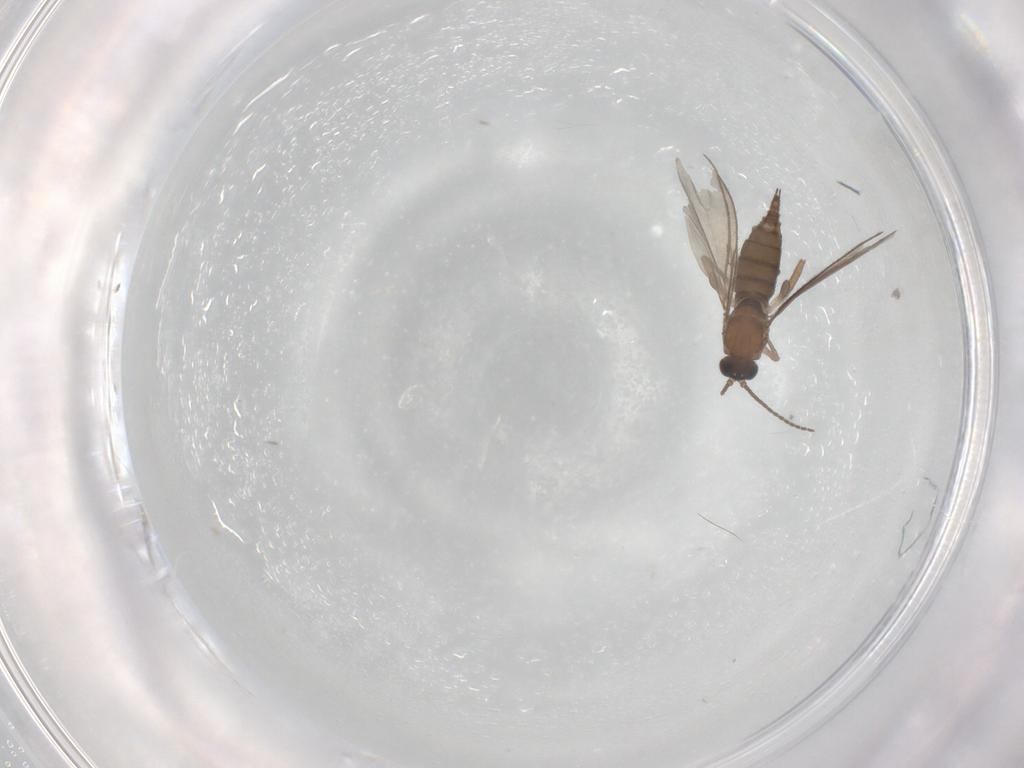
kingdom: Animalia
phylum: Arthropoda
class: Insecta
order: Diptera
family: Sciaridae
